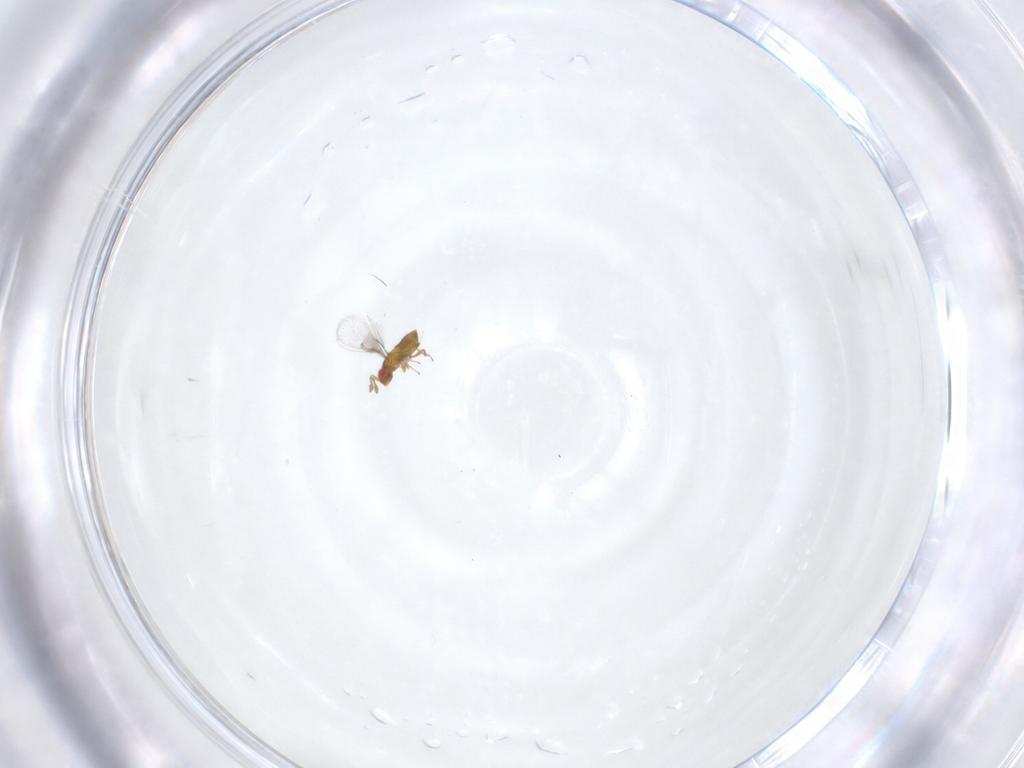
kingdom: Animalia
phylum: Arthropoda
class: Insecta
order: Hymenoptera
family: Trichogrammatidae
